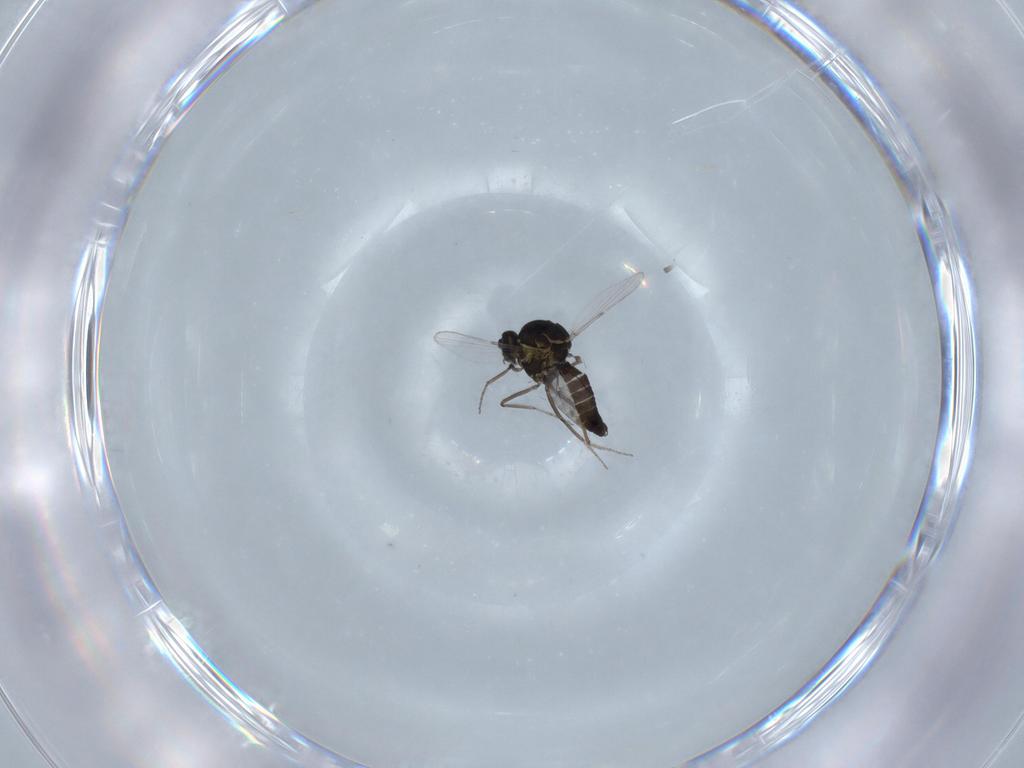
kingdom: Animalia
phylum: Arthropoda
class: Insecta
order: Diptera
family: Ceratopogonidae
